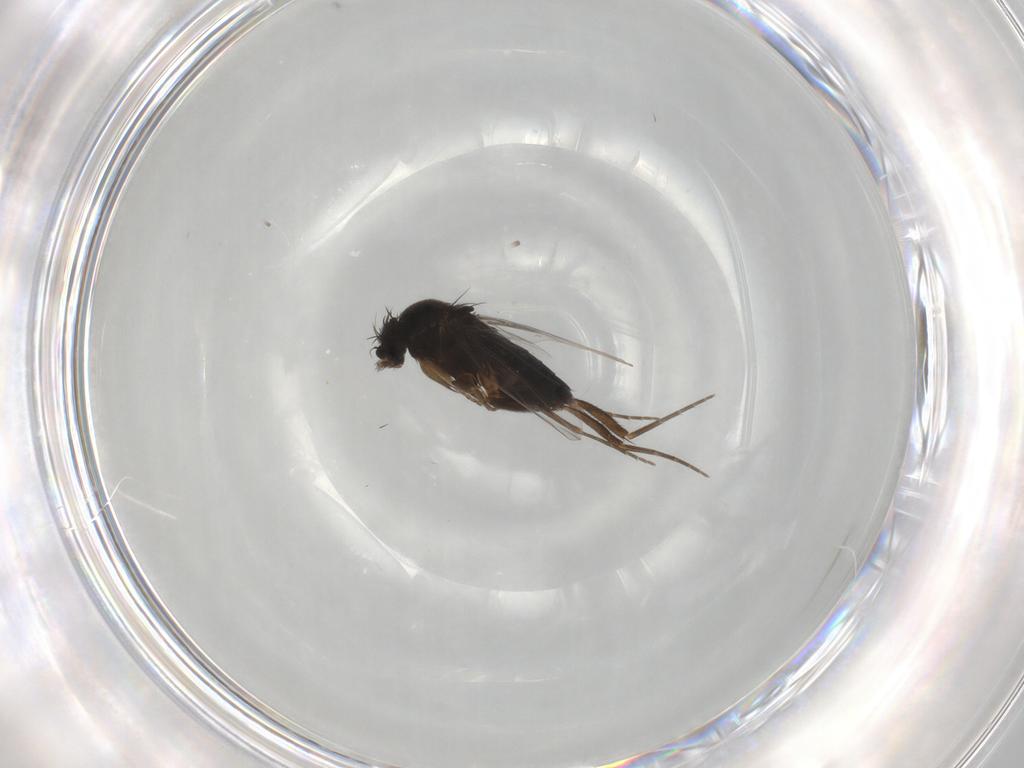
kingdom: Animalia
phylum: Arthropoda
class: Insecta
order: Diptera
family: Phoridae
